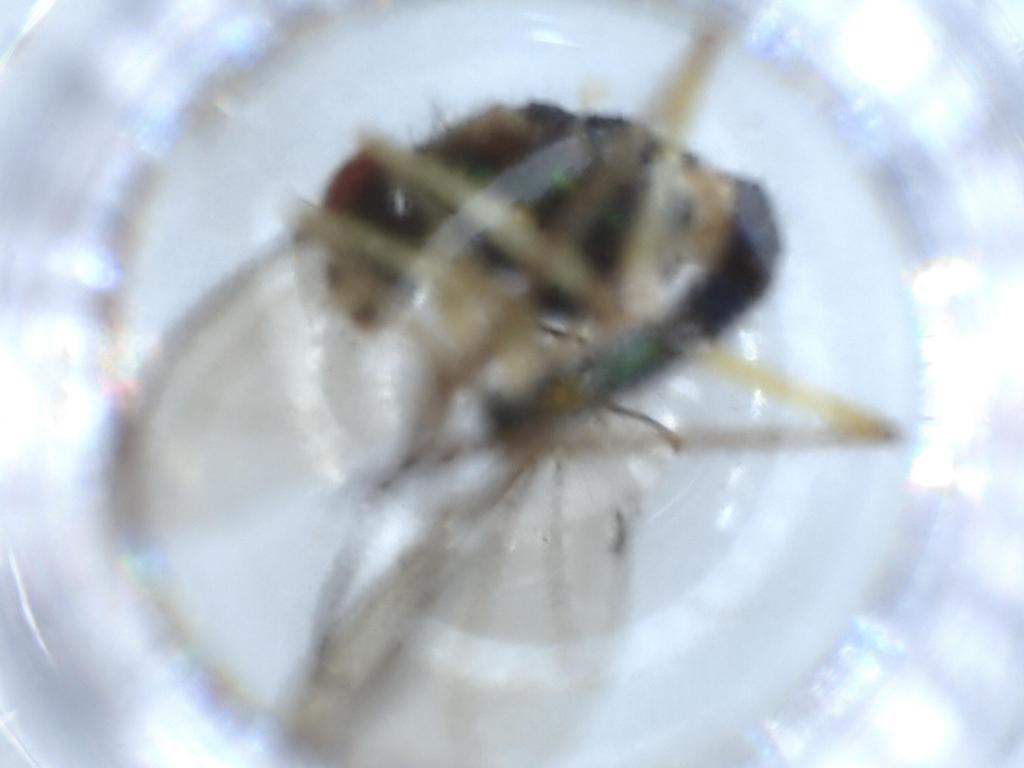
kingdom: Animalia
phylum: Arthropoda
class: Insecta
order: Diptera
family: Dolichopodidae
